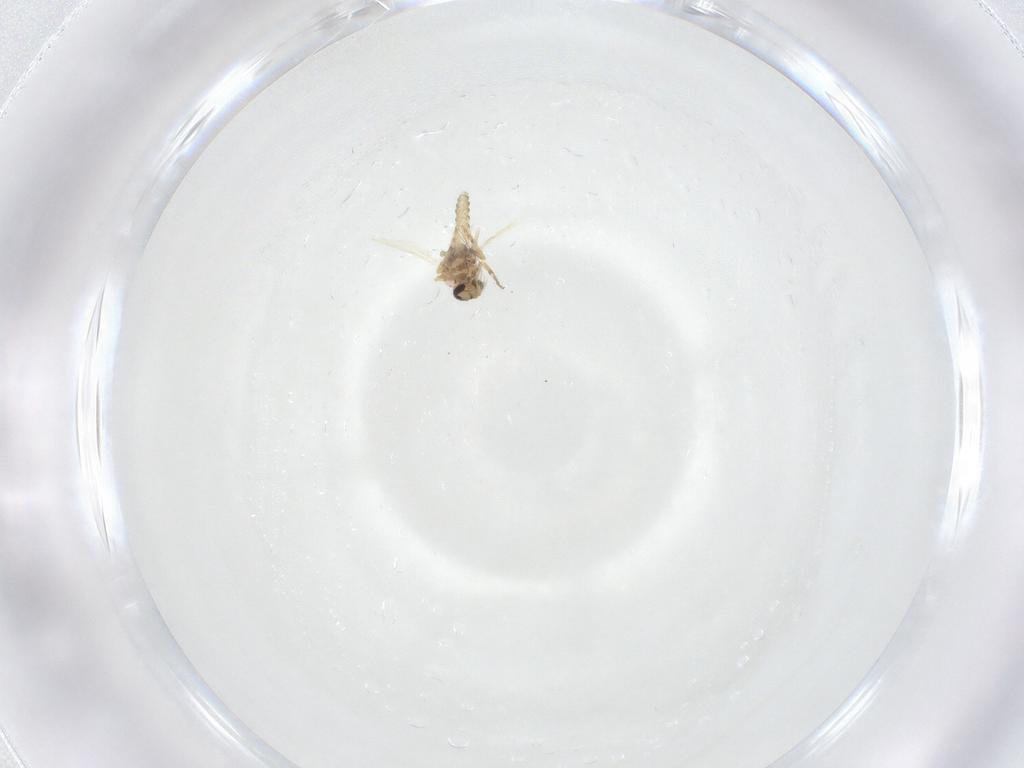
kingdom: Animalia
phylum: Arthropoda
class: Insecta
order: Diptera
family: Ceratopogonidae
